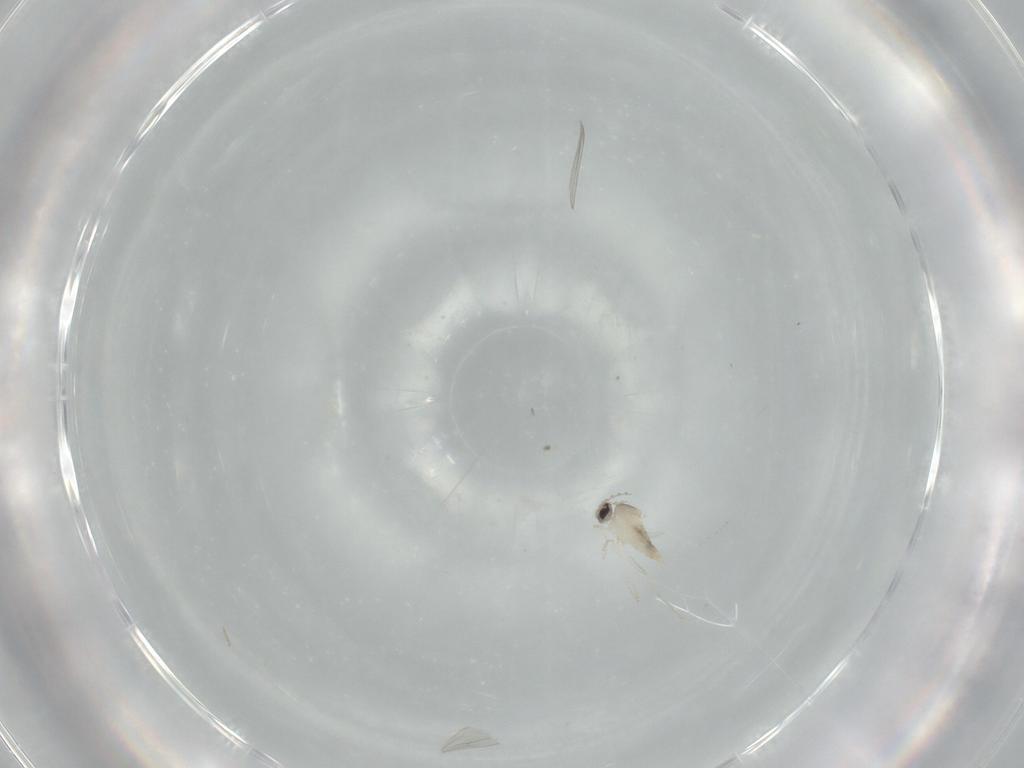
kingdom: Animalia
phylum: Arthropoda
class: Insecta
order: Diptera
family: Cecidomyiidae
